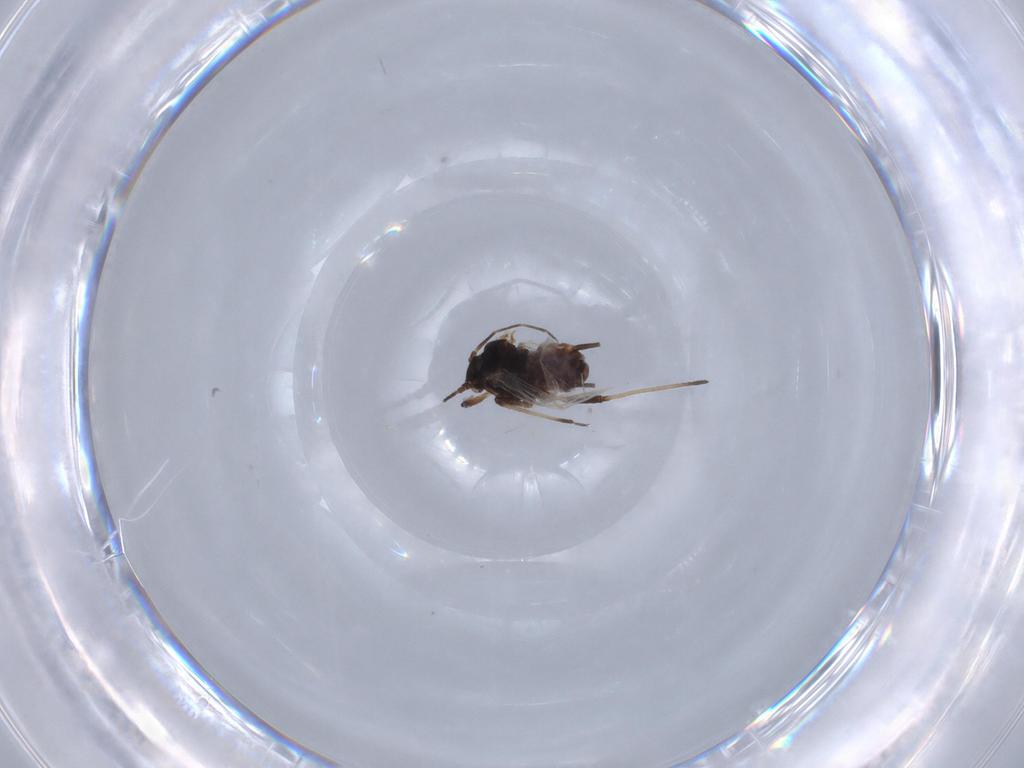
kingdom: Animalia
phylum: Arthropoda
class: Insecta
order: Hemiptera
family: Aphididae
